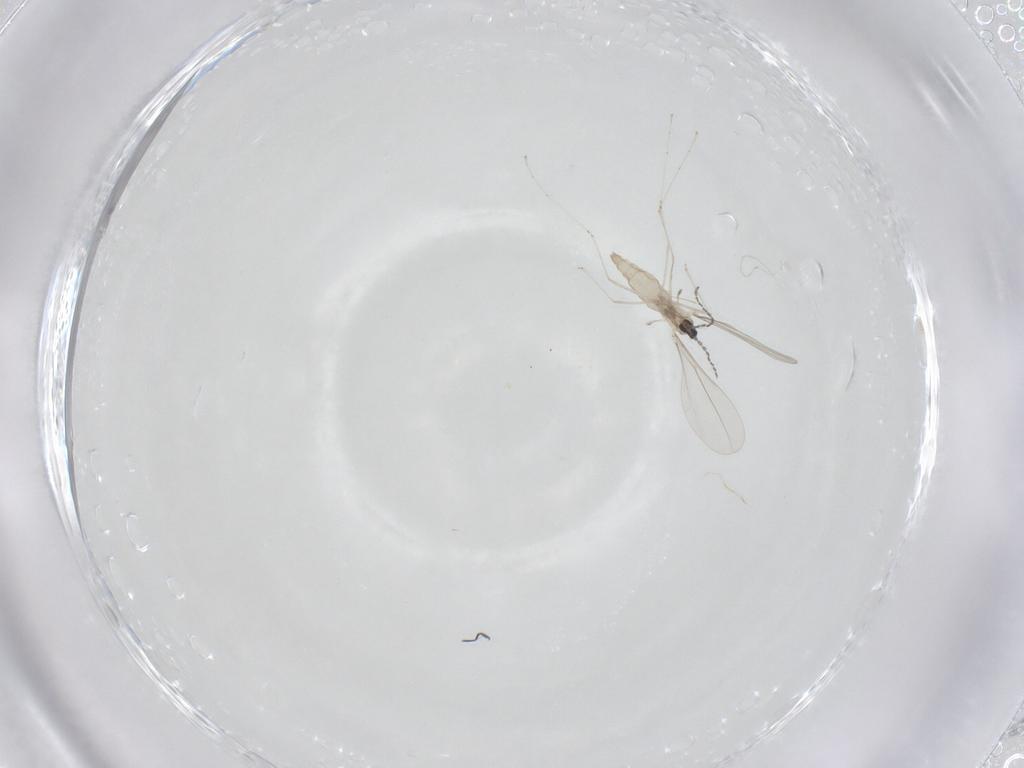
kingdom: Animalia
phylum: Arthropoda
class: Insecta
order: Diptera
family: Cecidomyiidae
